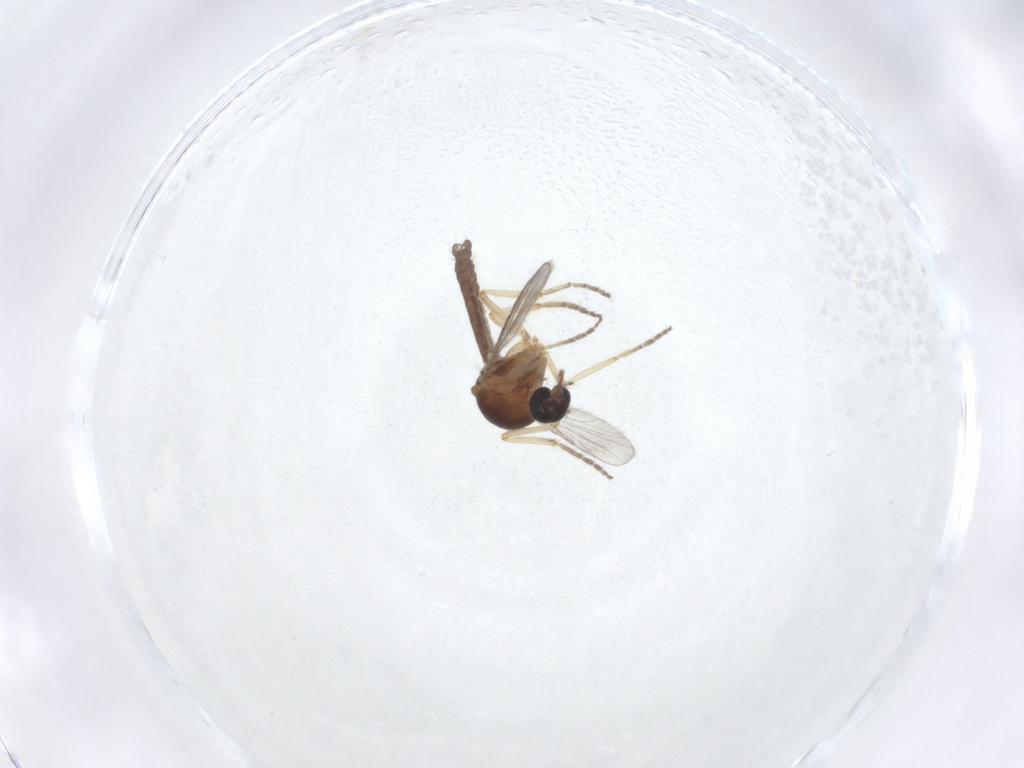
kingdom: Animalia
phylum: Arthropoda
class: Insecta
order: Diptera
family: Ceratopogonidae
